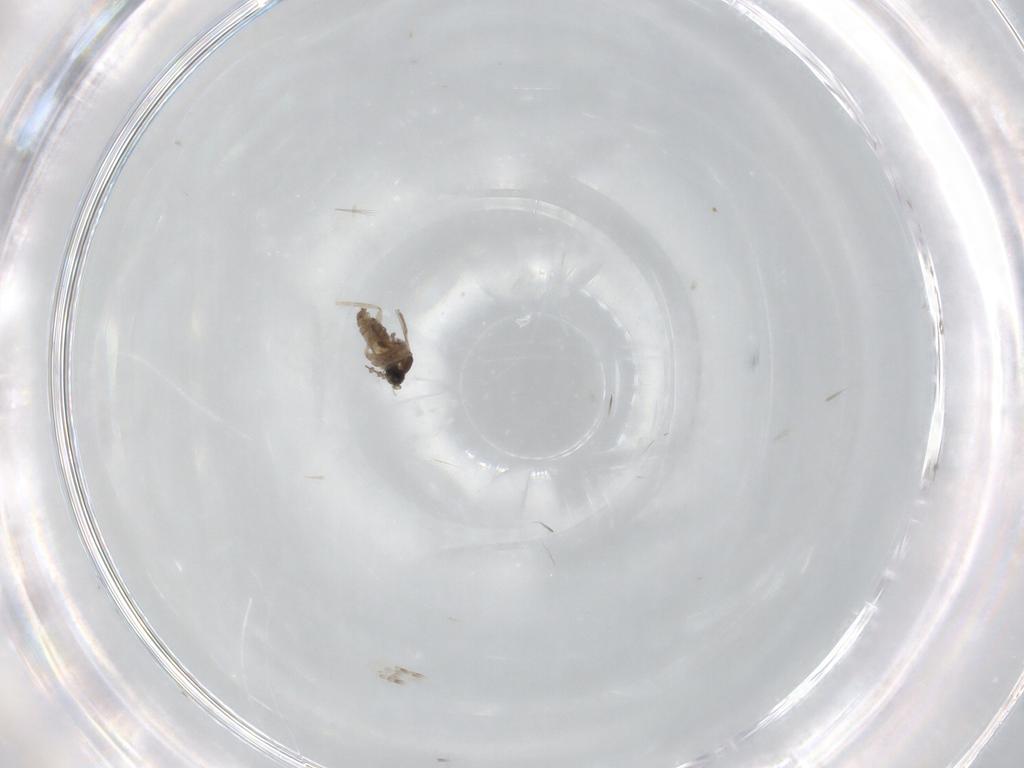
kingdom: Animalia
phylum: Arthropoda
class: Insecta
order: Diptera
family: Cecidomyiidae
